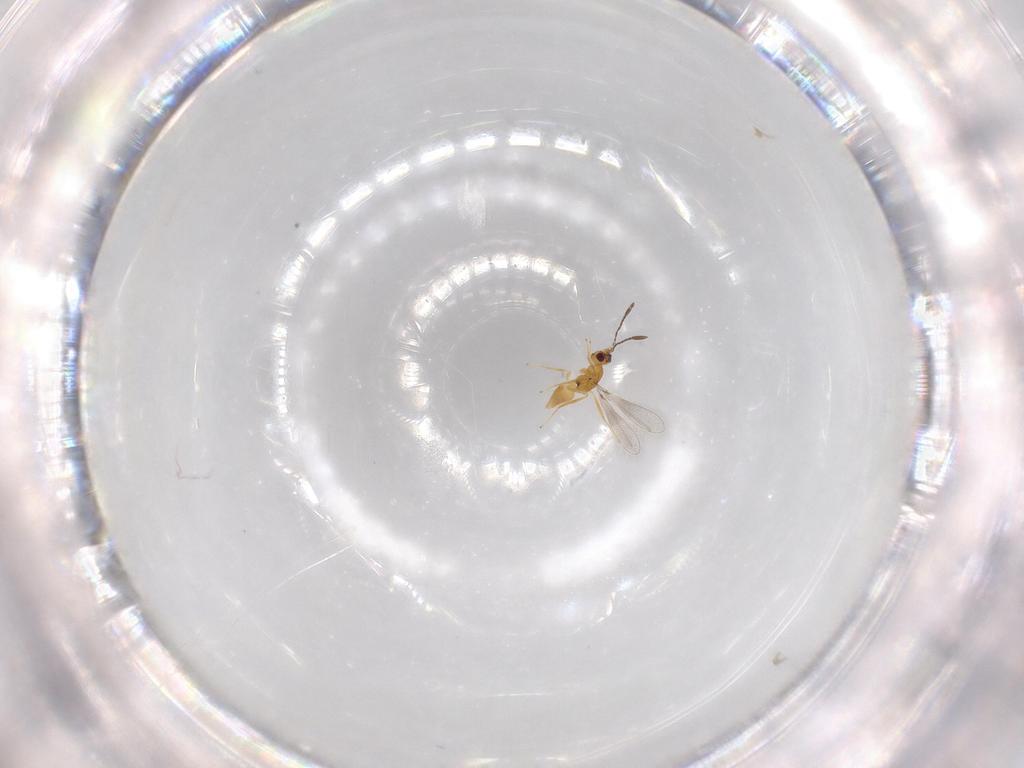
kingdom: Animalia
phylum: Arthropoda
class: Insecta
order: Hymenoptera
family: Mymaridae
